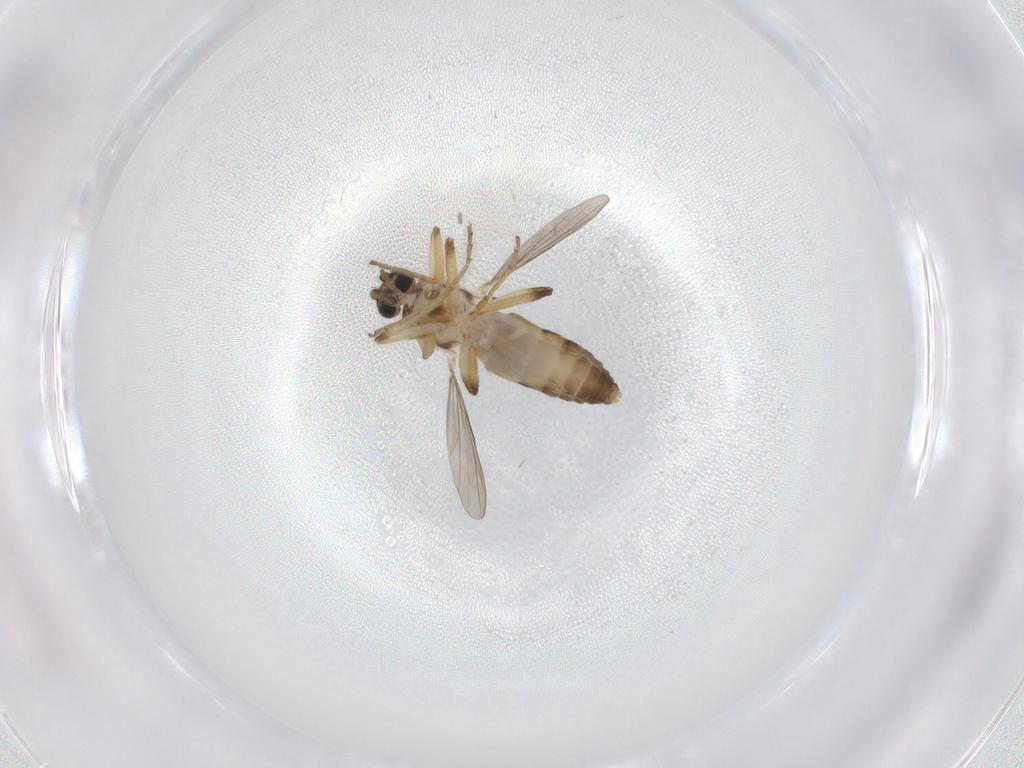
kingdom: Animalia
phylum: Arthropoda
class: Insecta
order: Diptera
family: Ceratopogonidae
